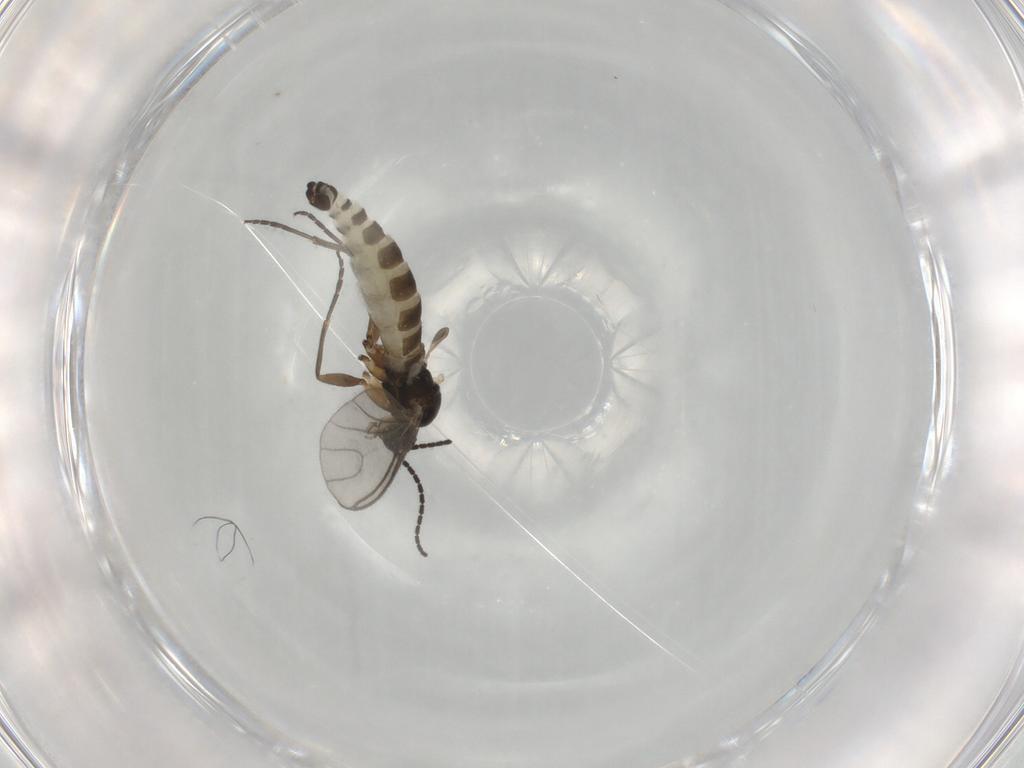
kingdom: Animalia
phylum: Arthropoda
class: Insecta
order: Diptera
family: Sciaridae
